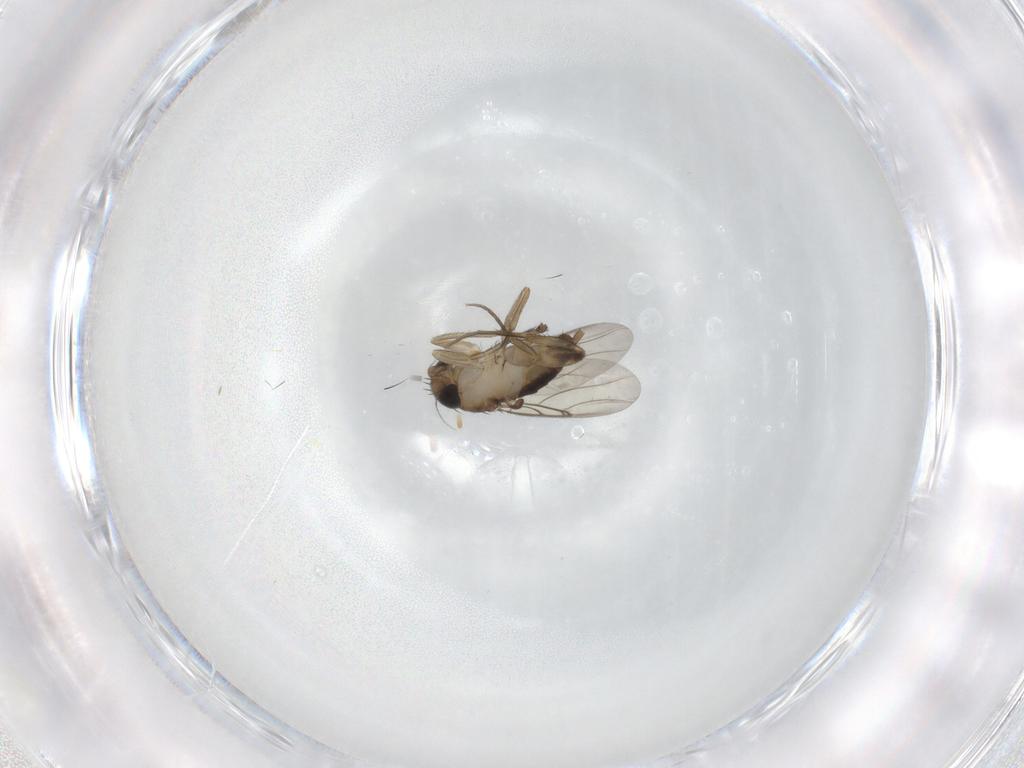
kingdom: Animalia
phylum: Arthropoda
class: Insecta
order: Diptera
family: Phoridae
